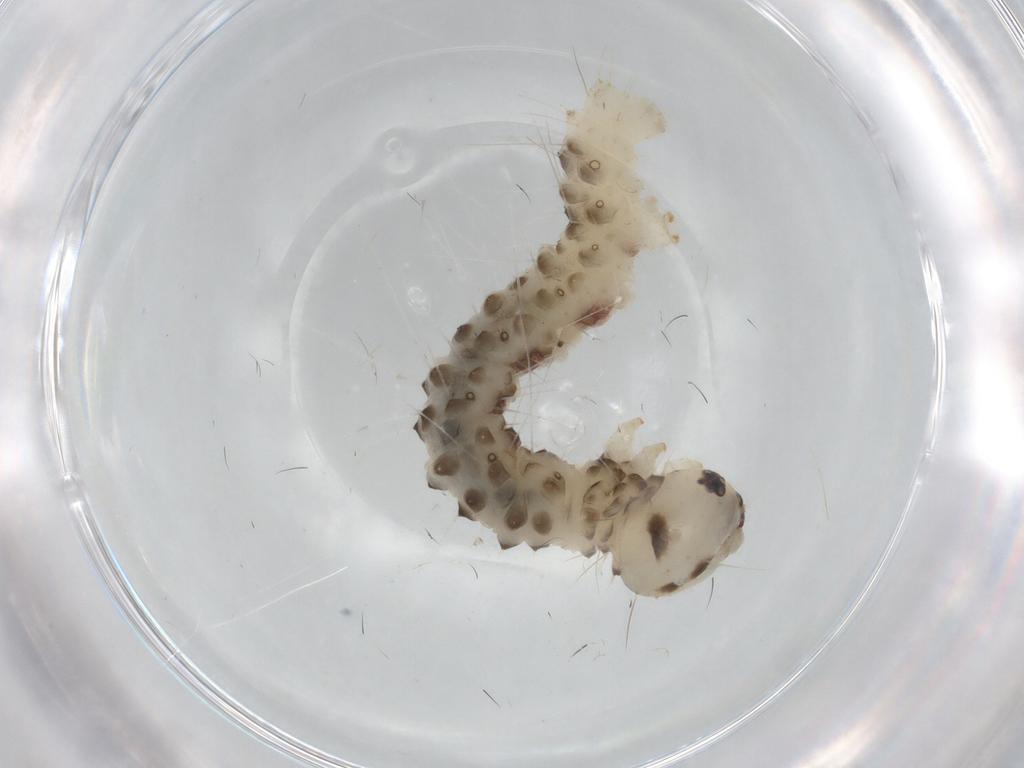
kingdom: Animalia
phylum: Arthropoda
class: Insecta
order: Lepidoptera
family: Geometridae
